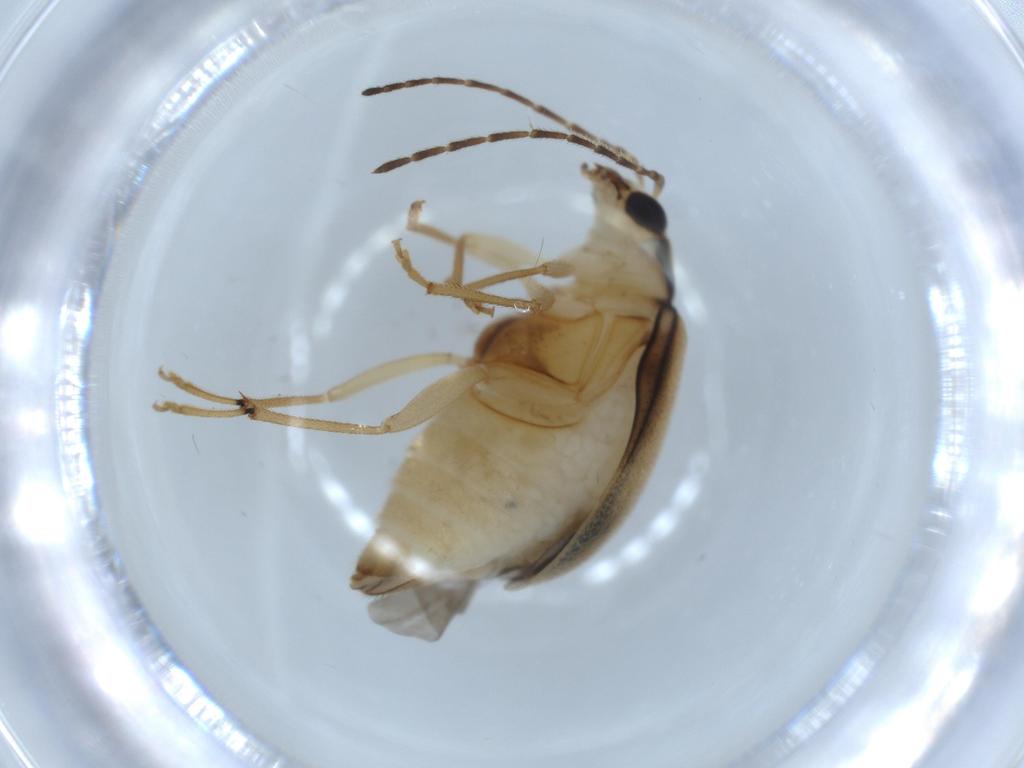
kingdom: Animalia
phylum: Arthropoda
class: Insecta
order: Coleoptera
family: Chrysomelidae
